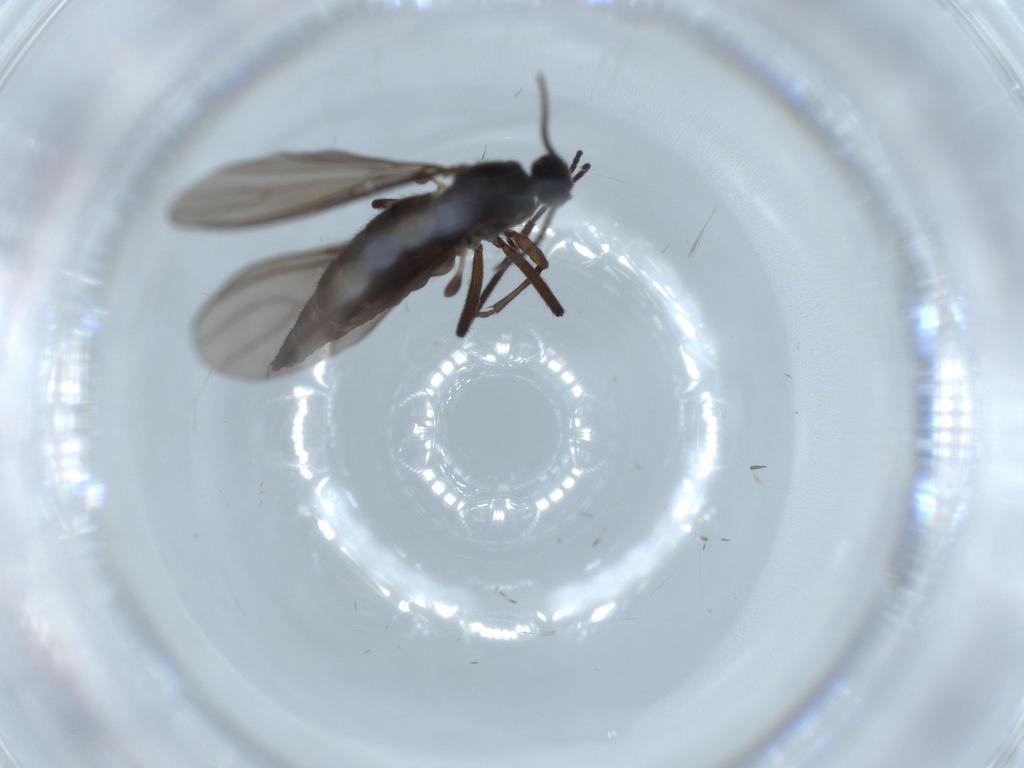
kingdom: Animalia
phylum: Arthropoda
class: Insecta
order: Diptera
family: Sciaridae
